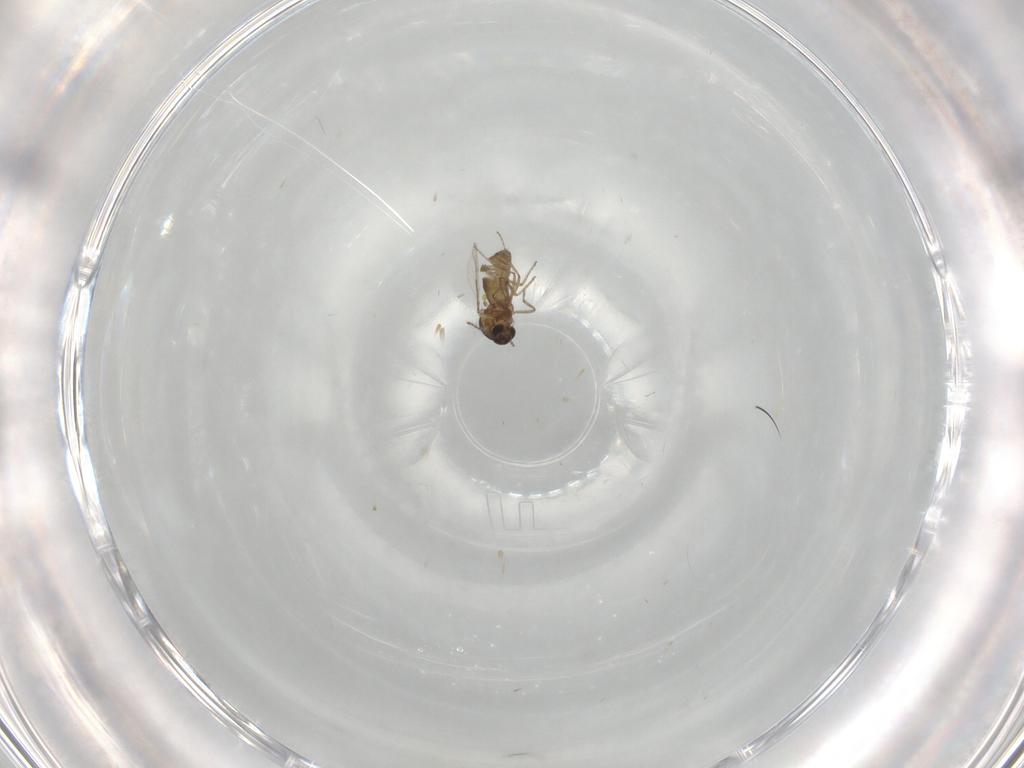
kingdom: Animalia
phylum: Arthropoda
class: Insecta
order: Diptera
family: Ceratopogonidae
